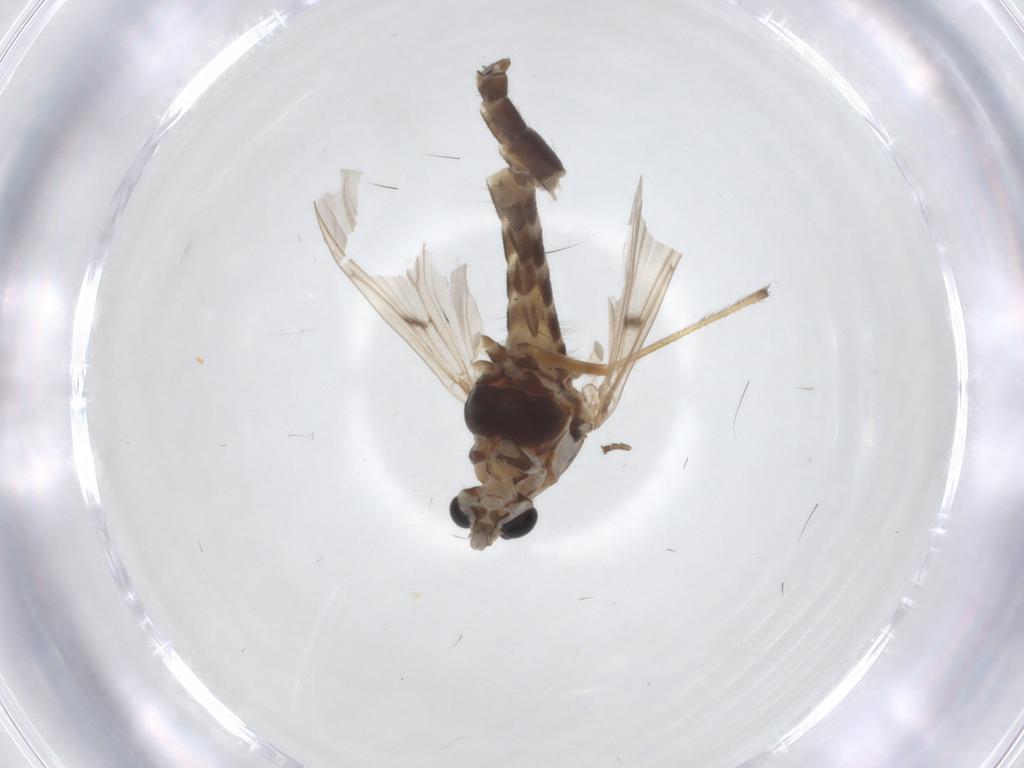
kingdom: Animalia
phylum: Arthropoda
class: Insecta
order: Diptera
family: Chironomidae
